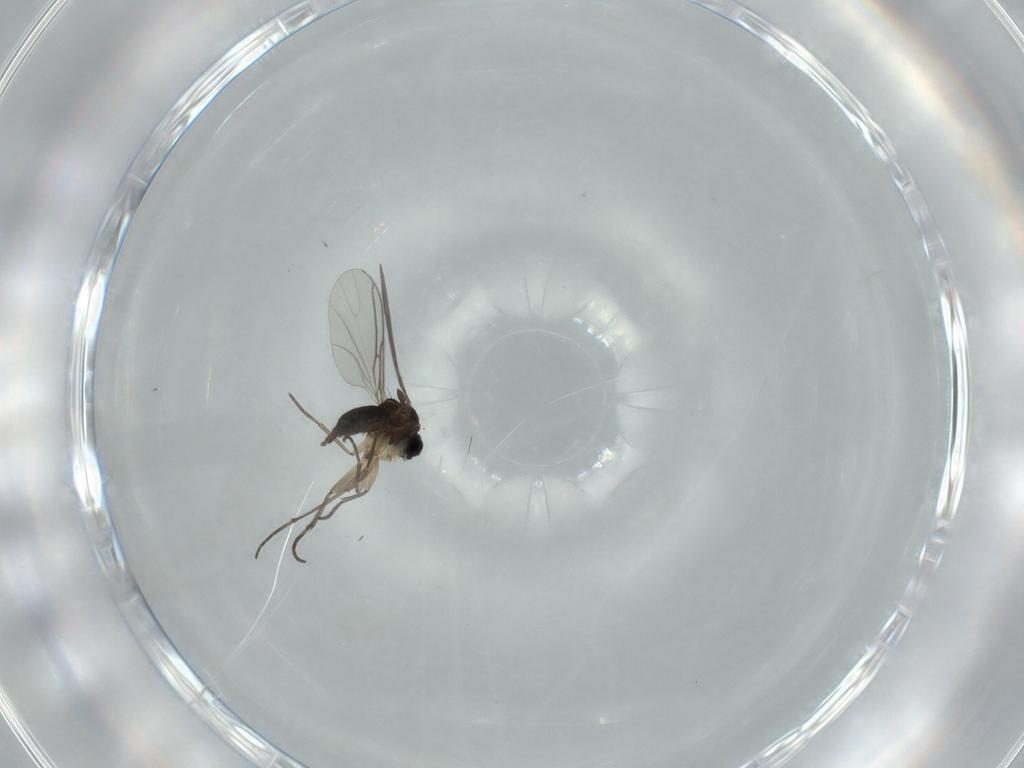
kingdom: Animalia
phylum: Arthropoda
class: Insecta
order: Diptera
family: Sciaridae
